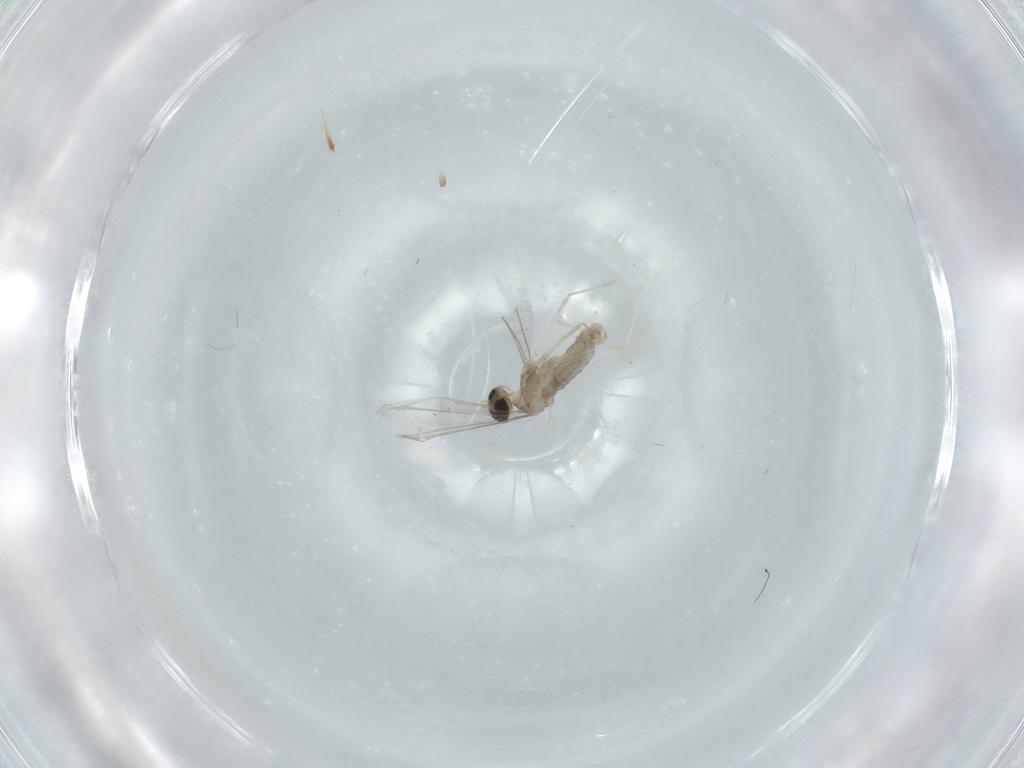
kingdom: Animalia
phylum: Arthropoda
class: Insecta
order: Diptera
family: Cecidomyiidae
